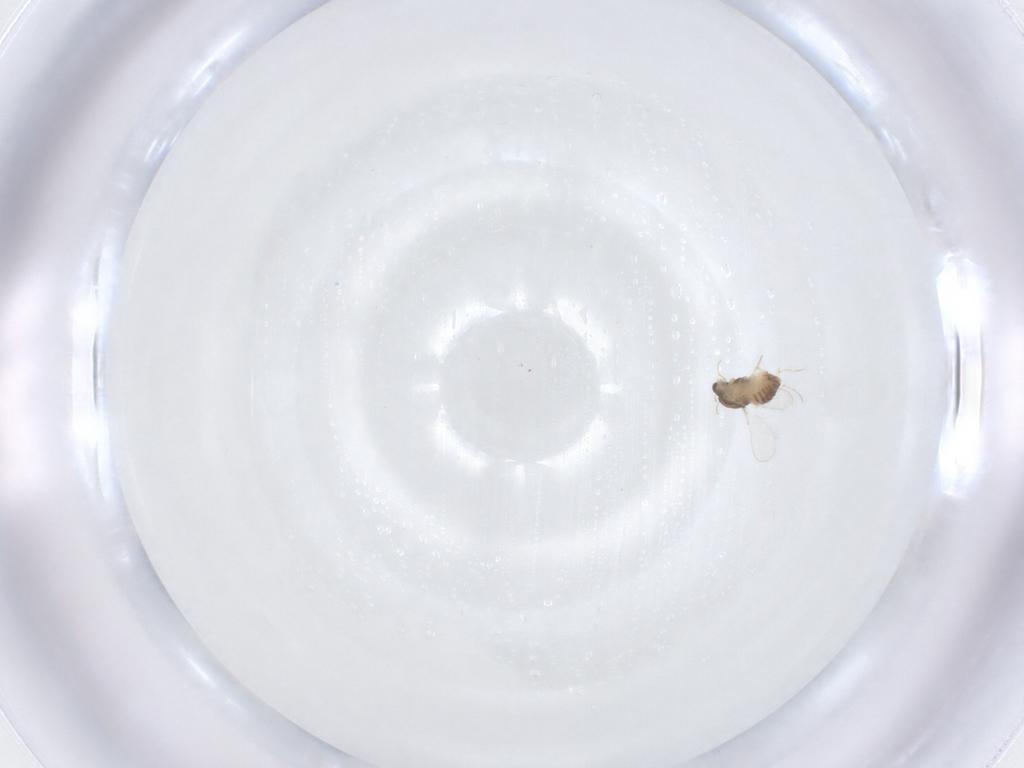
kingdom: Animalia
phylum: Arthropoda
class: Insecta
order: Diptera
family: Chironomidae
